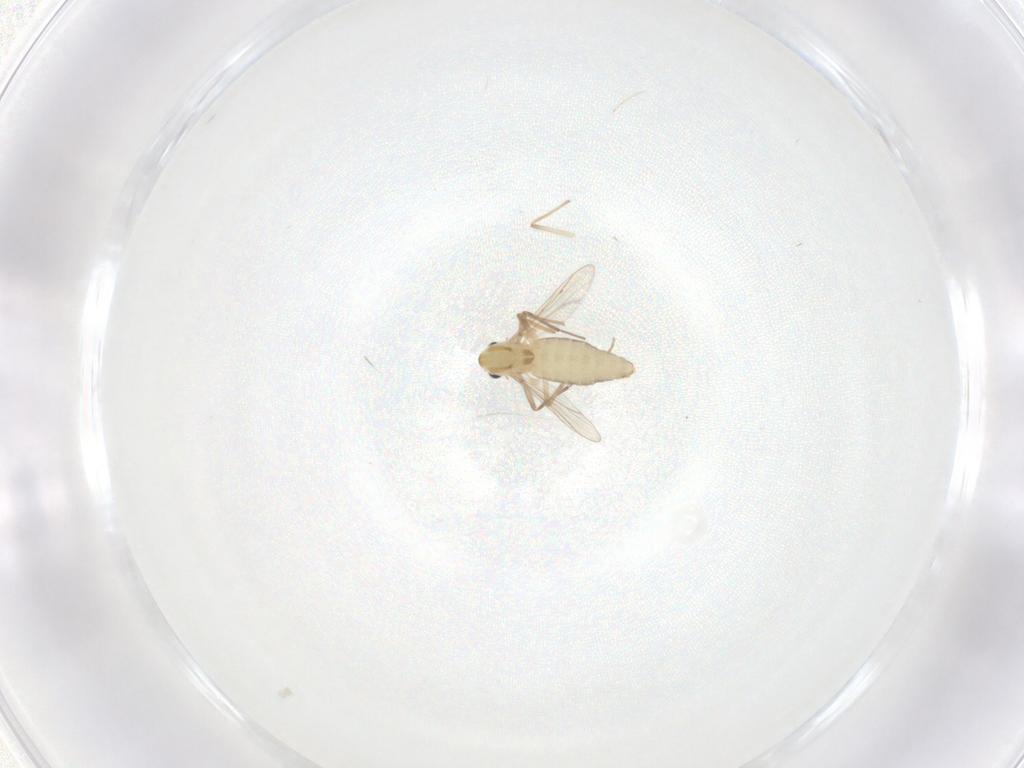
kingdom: Animalia
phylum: Arthropoda
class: Insecta
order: Diptera
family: Chironomidae
